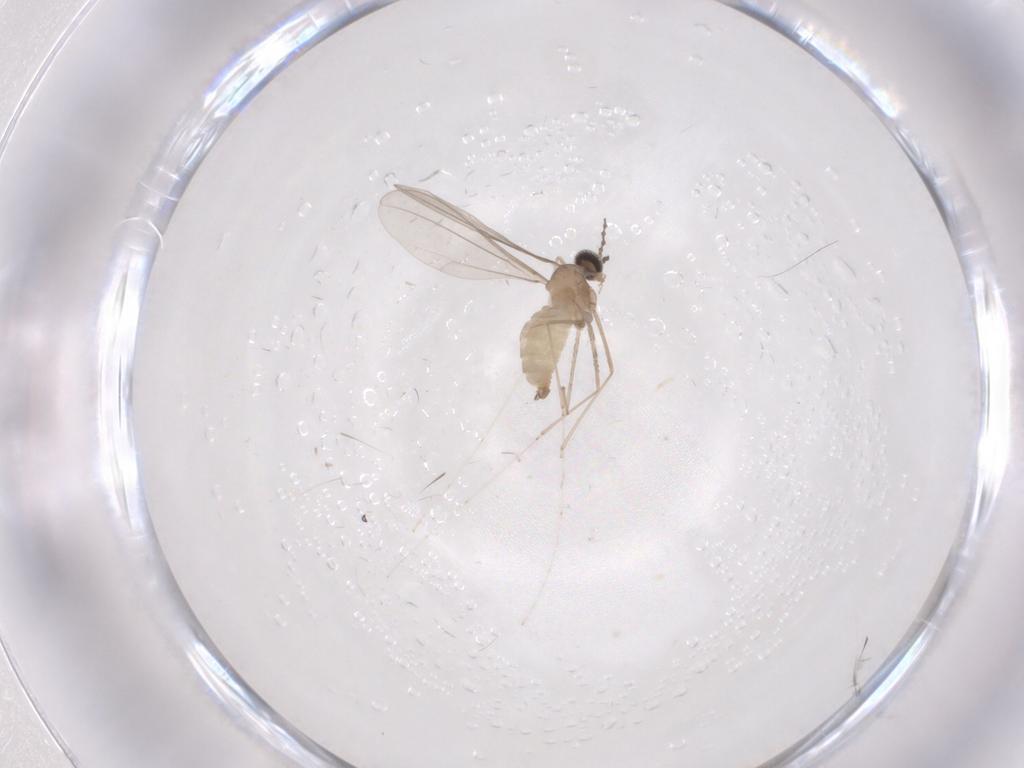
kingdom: Animalia
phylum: Arthropoda
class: Insecta
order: Diptera
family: Cecidomyiidae
